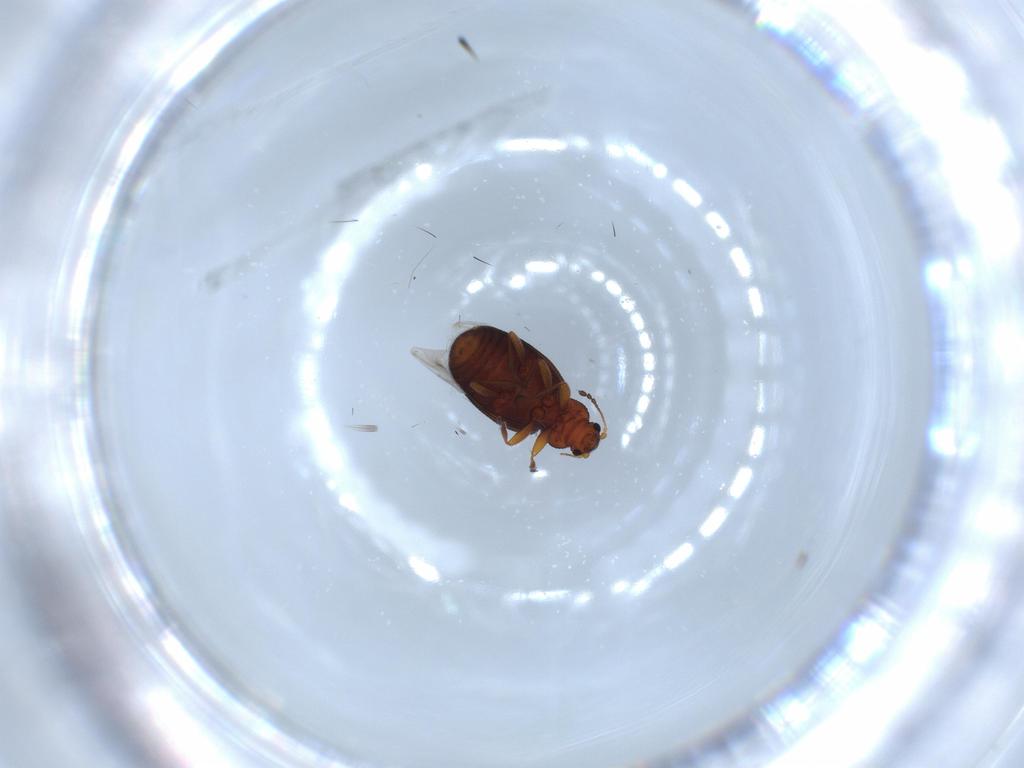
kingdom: Animalia
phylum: Arthropoda
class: Insecta
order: Coleoptera
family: Latridiidae
